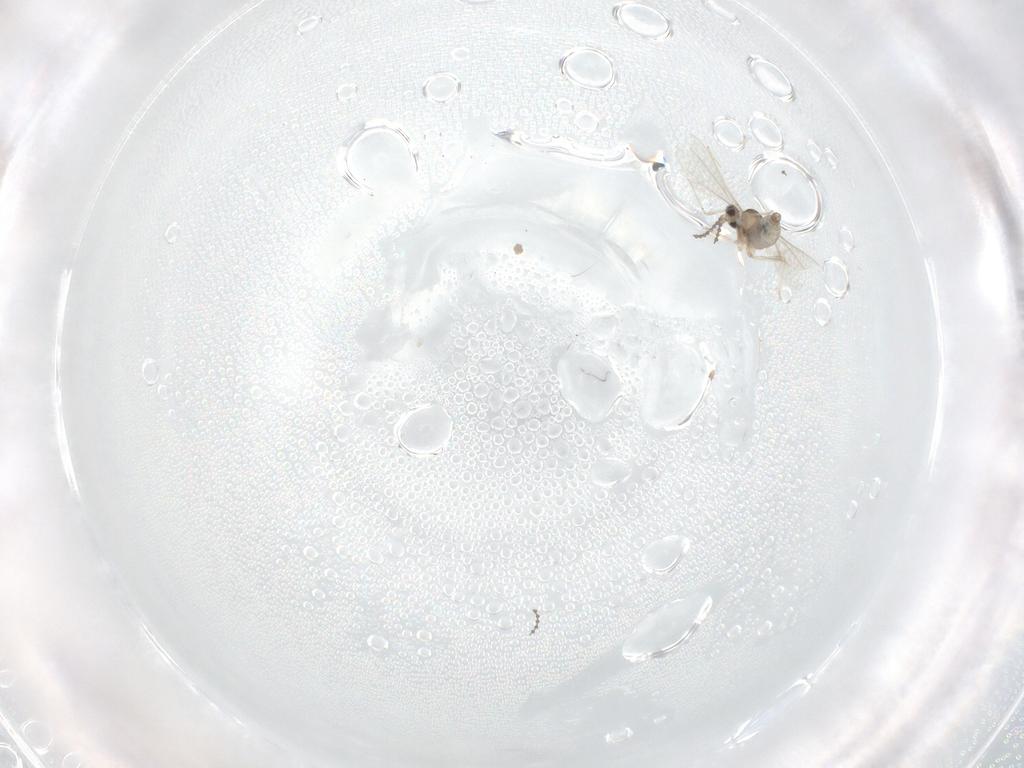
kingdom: Animalia
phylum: Arthropoda
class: Insecta
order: Diptera
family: Cecidomyiidae
